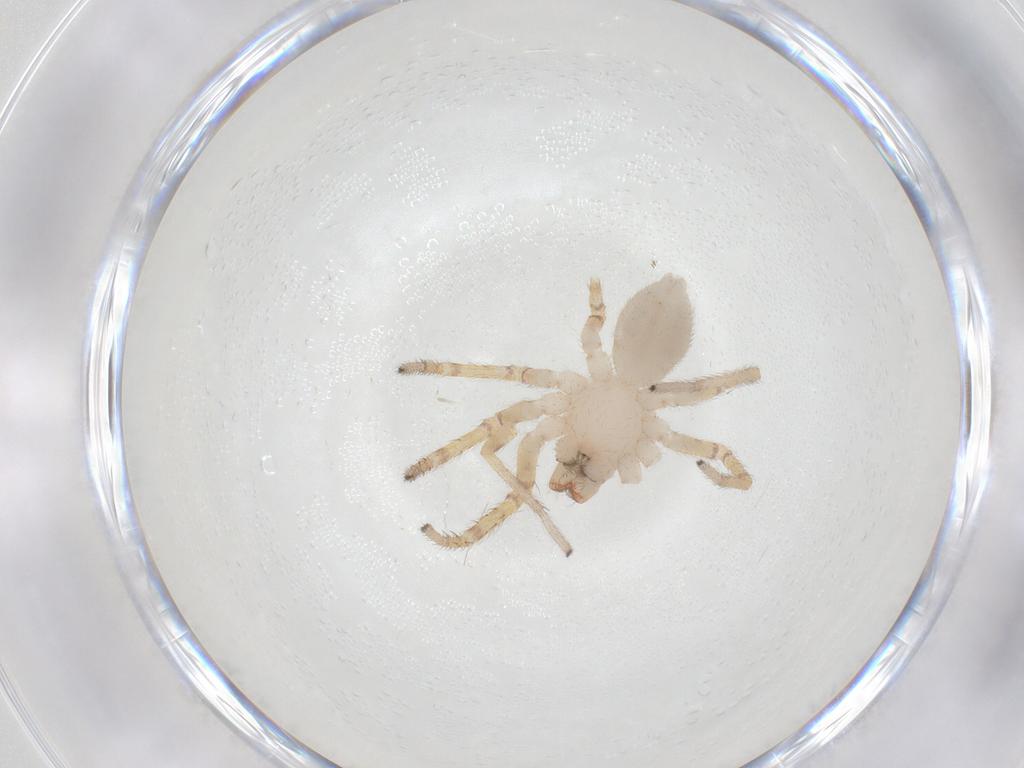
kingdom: Animalia
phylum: Arthropoda
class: Arachnida
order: Araneae
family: Corinnidae
